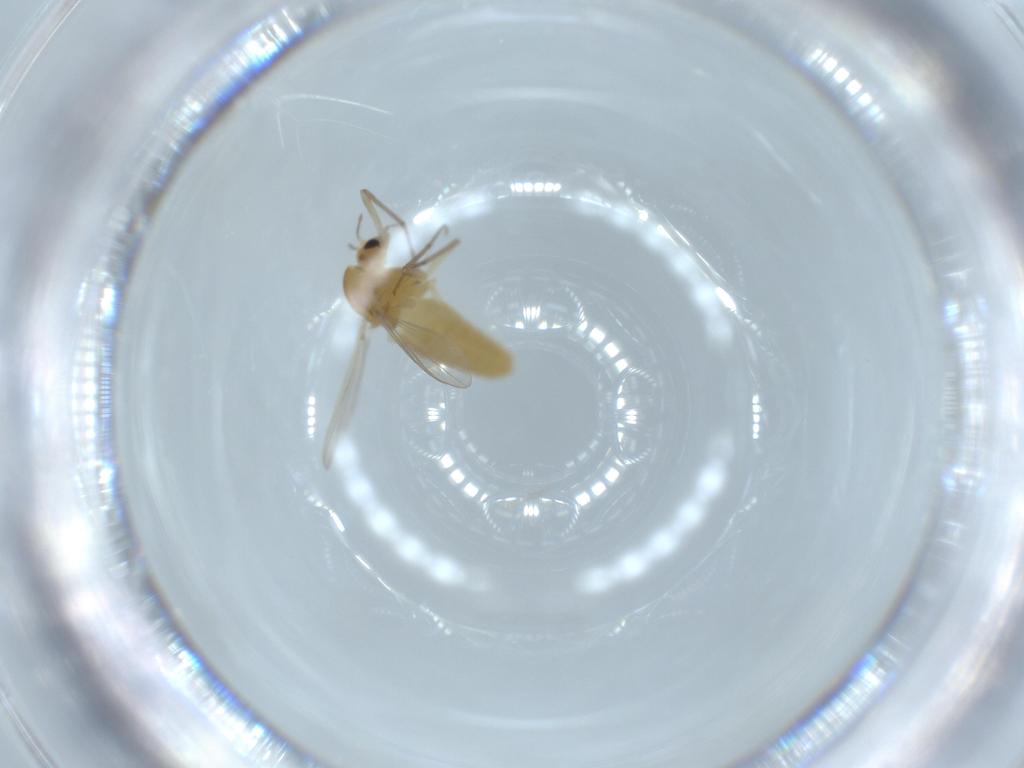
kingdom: Animalia
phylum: Arthropoda
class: Insecta
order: Diptera
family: Chironomidae
